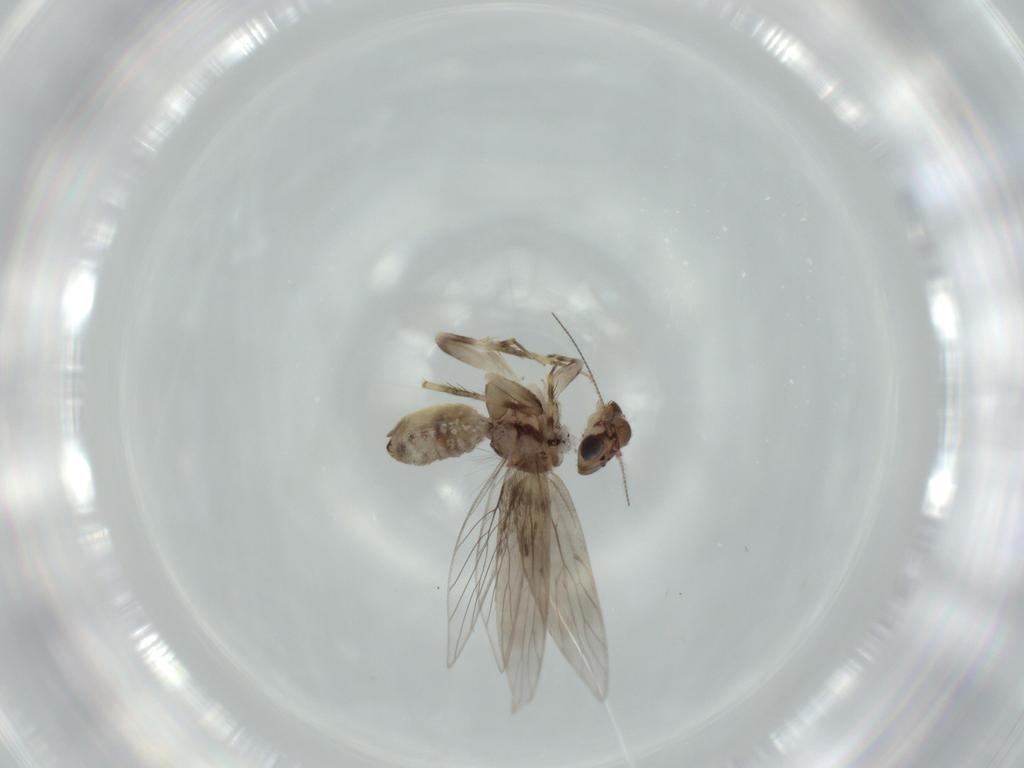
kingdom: Animalia
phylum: Arthropoda
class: Insecta
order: Psocodea
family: Lepidopsocidae
